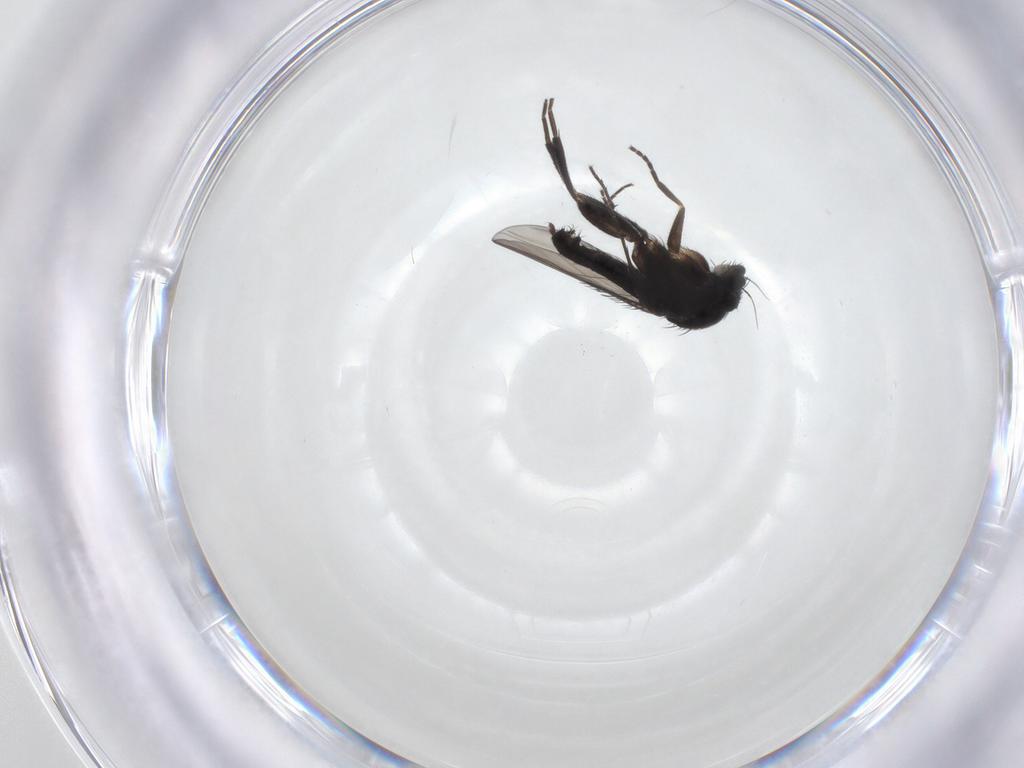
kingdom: Animalia
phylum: Arthropoda
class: Insecta
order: Diptera
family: Phoridae
